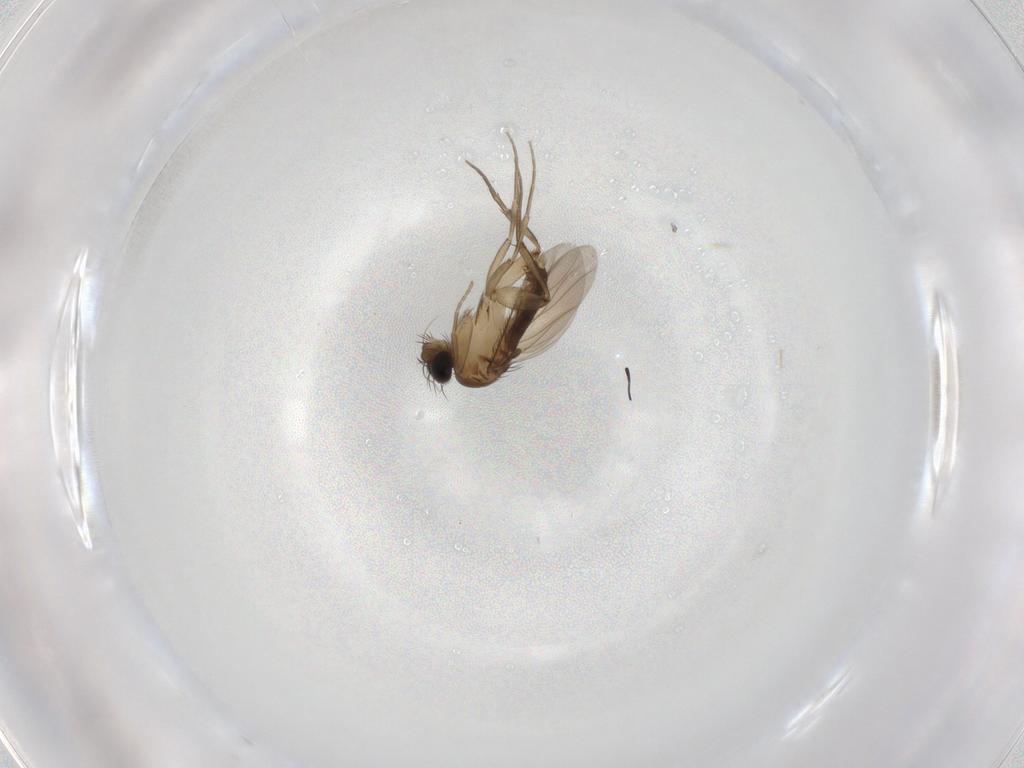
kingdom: Animalia
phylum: Arthropoda
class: Insecta
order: Diptera
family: Phoridae
